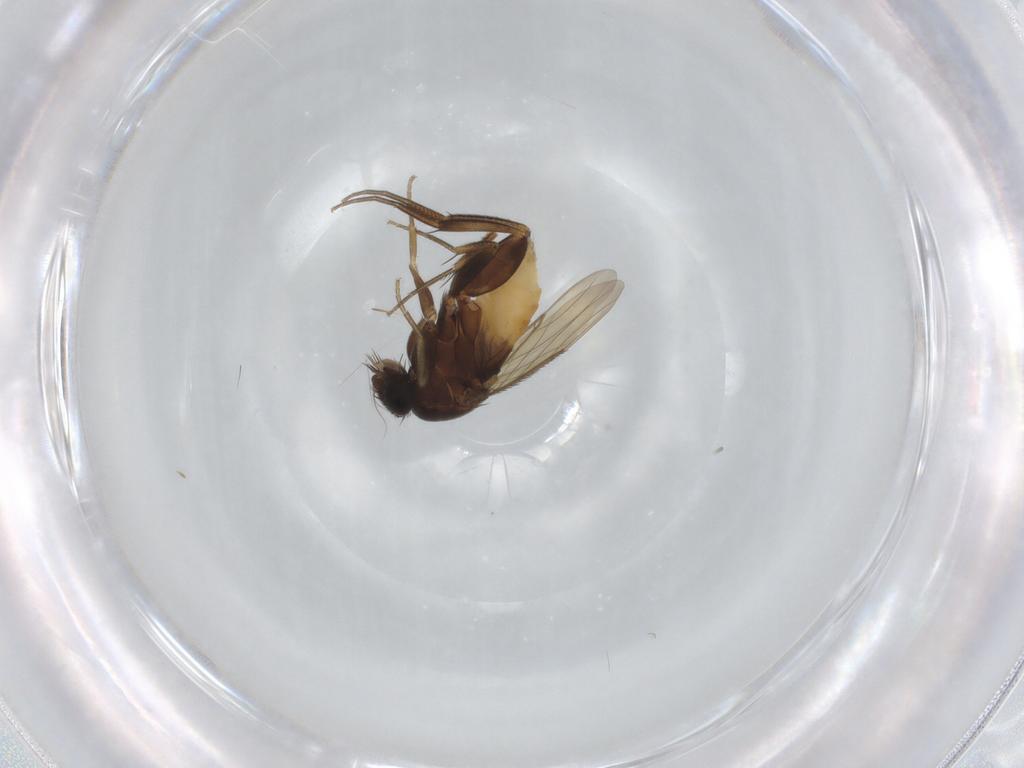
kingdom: Animalia
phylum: Arthropoda
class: Insecta
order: Diptera
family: Phoridae
